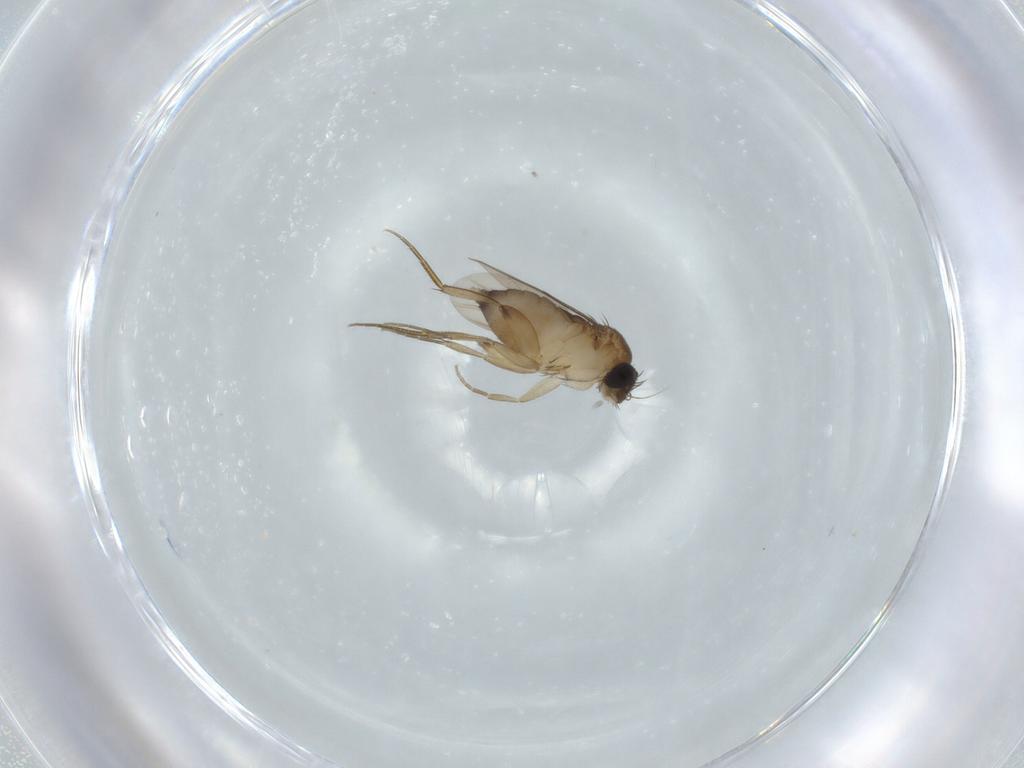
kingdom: Animalia
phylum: Arthropoda
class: Insecta
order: Diptera
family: Phoridae
